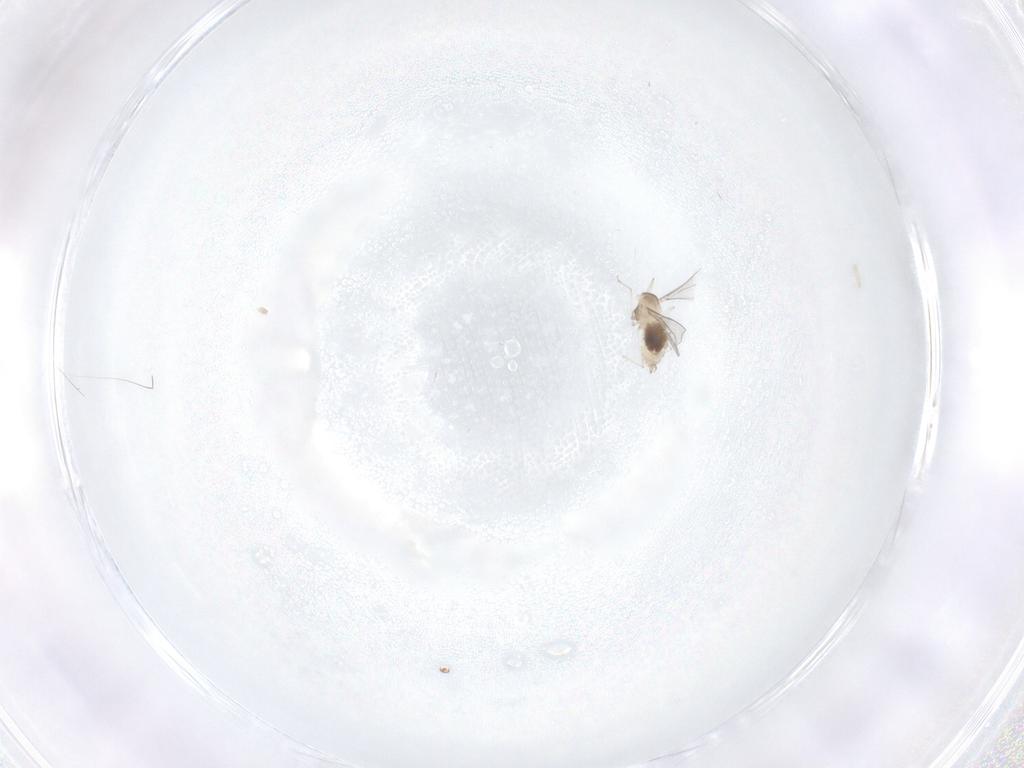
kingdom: Animalia
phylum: Arthropoda
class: Insecta
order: Diptera
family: Psychodidae
